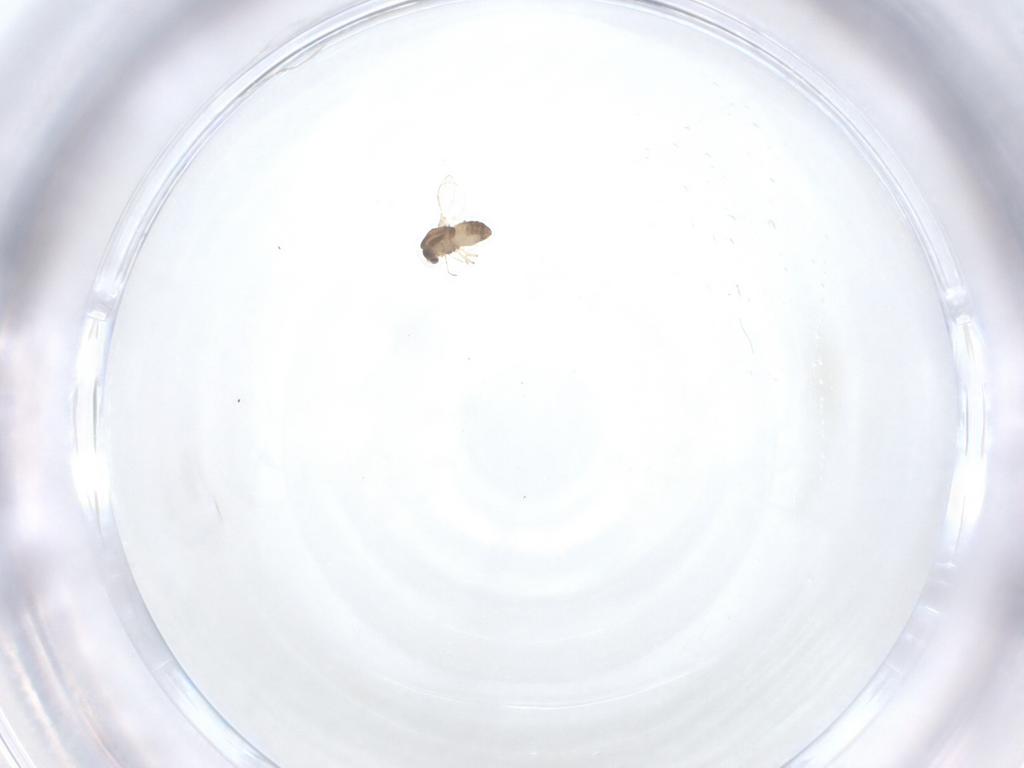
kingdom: Animalia
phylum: Arthropoda
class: Insecta
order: Diptera
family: Chironomidae
